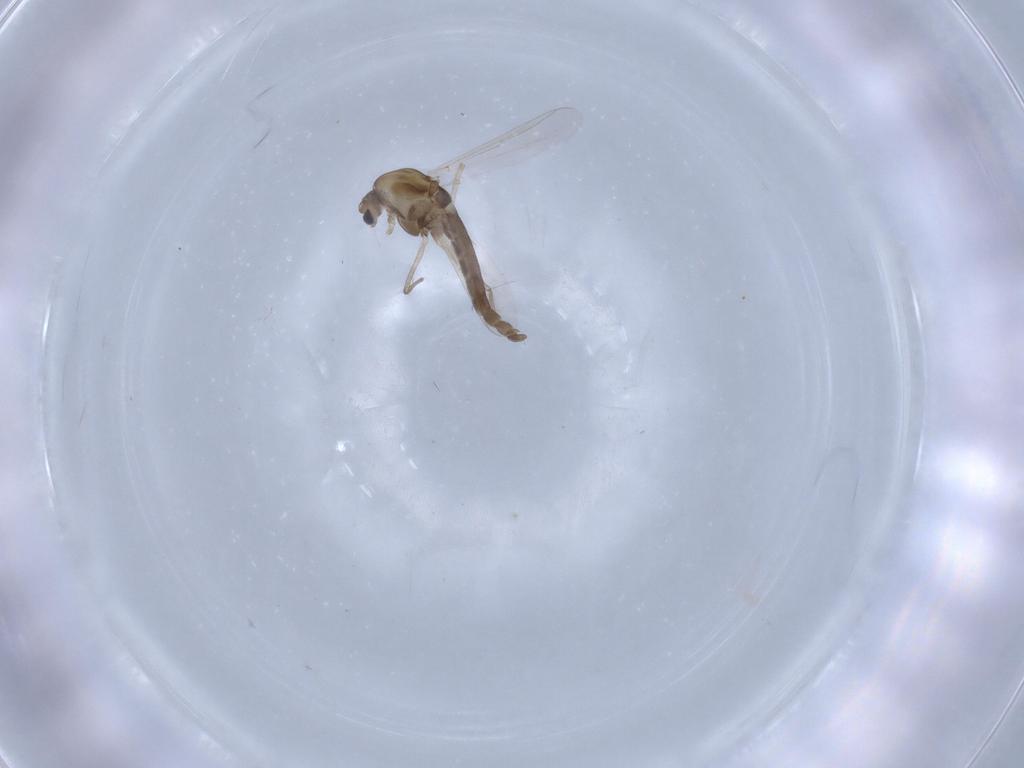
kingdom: Animalia
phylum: Arthropoda
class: Insecta
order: Diptera
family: Chironomidae
